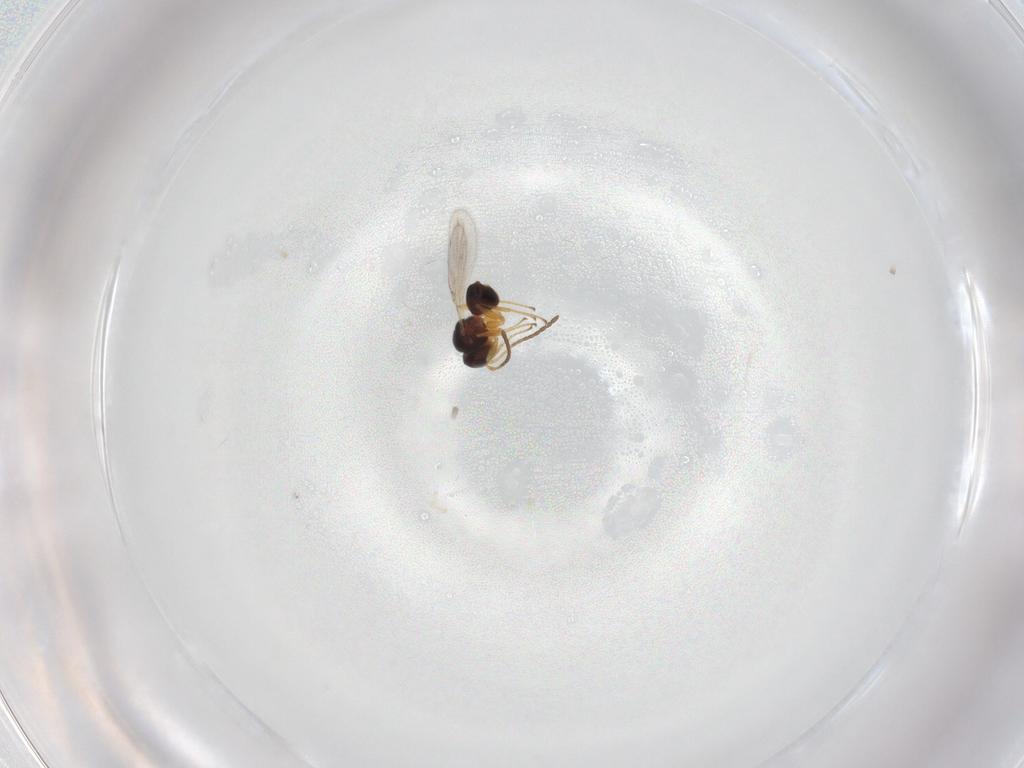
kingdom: Animalia
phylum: Arthropoda
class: Insecta
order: Hymenoptera
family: Figitidae
